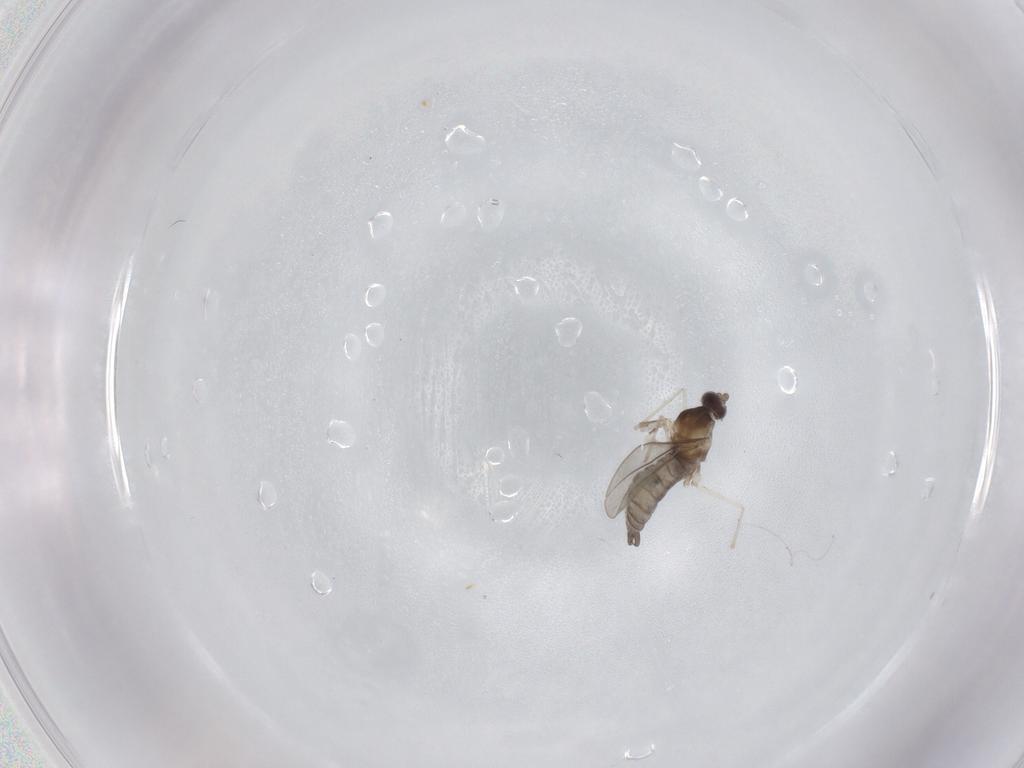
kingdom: Animalia
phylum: Arthropoda
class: Insecta
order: Diptera
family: Cecidomyiidae
